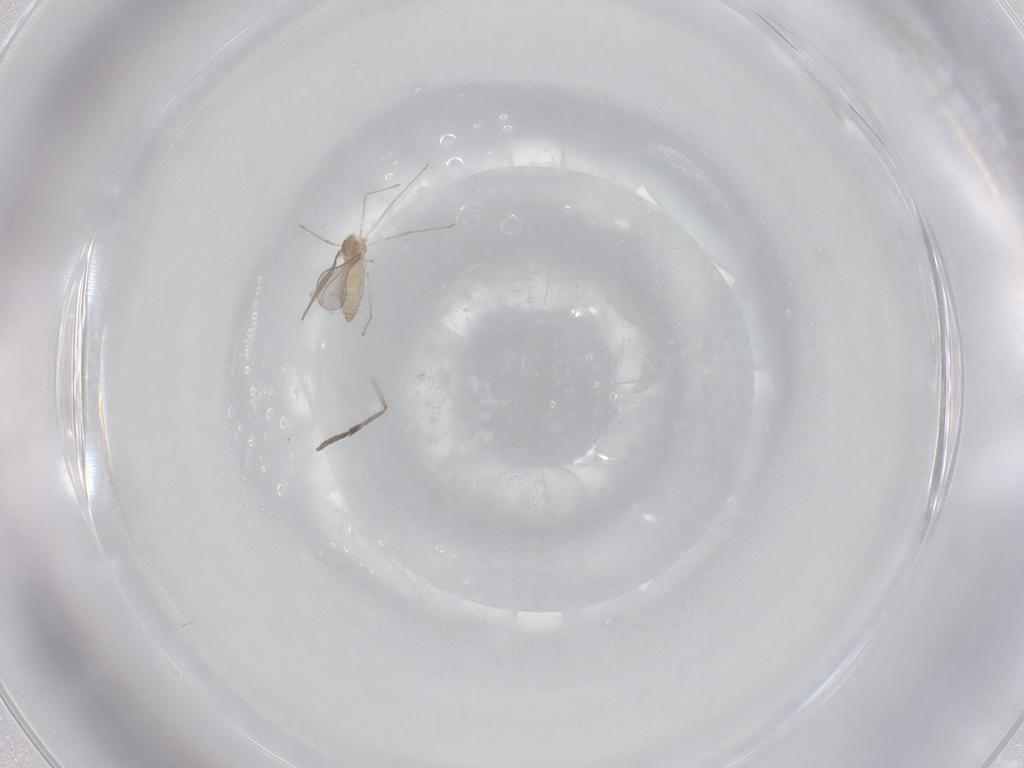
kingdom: Animalia
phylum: Arthropoda
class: Insecta
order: Diptera
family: Cecidomyiidae
